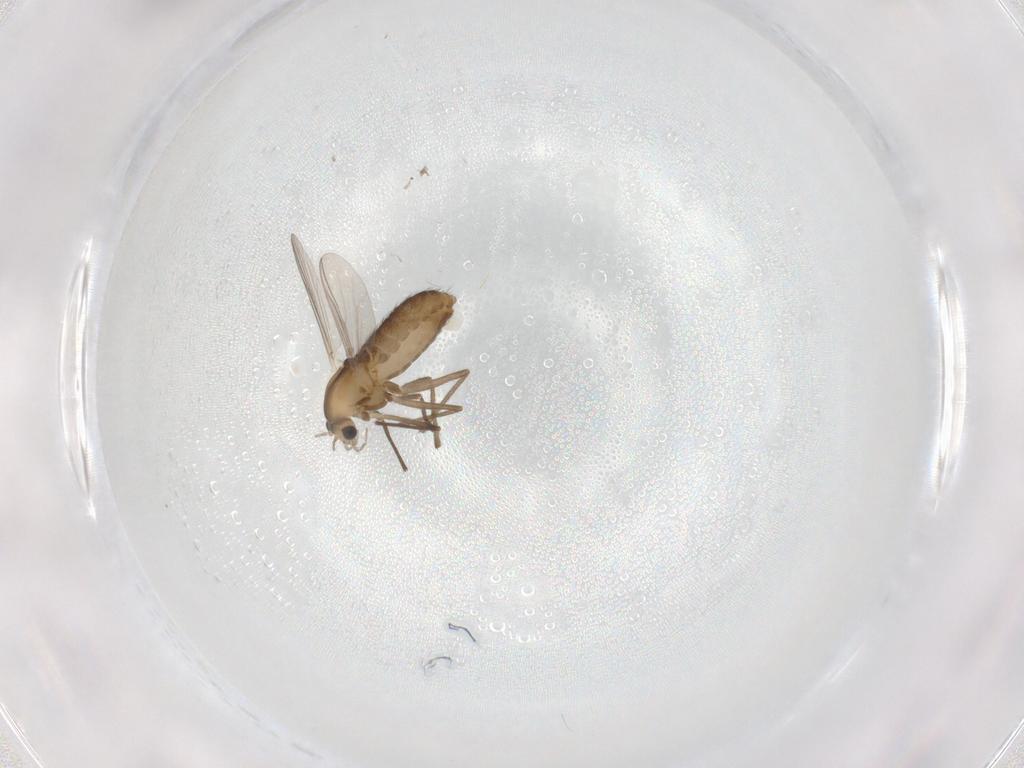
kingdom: Animalia
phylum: Arthropoda
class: Insecta
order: Diptera
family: Chironomidae
